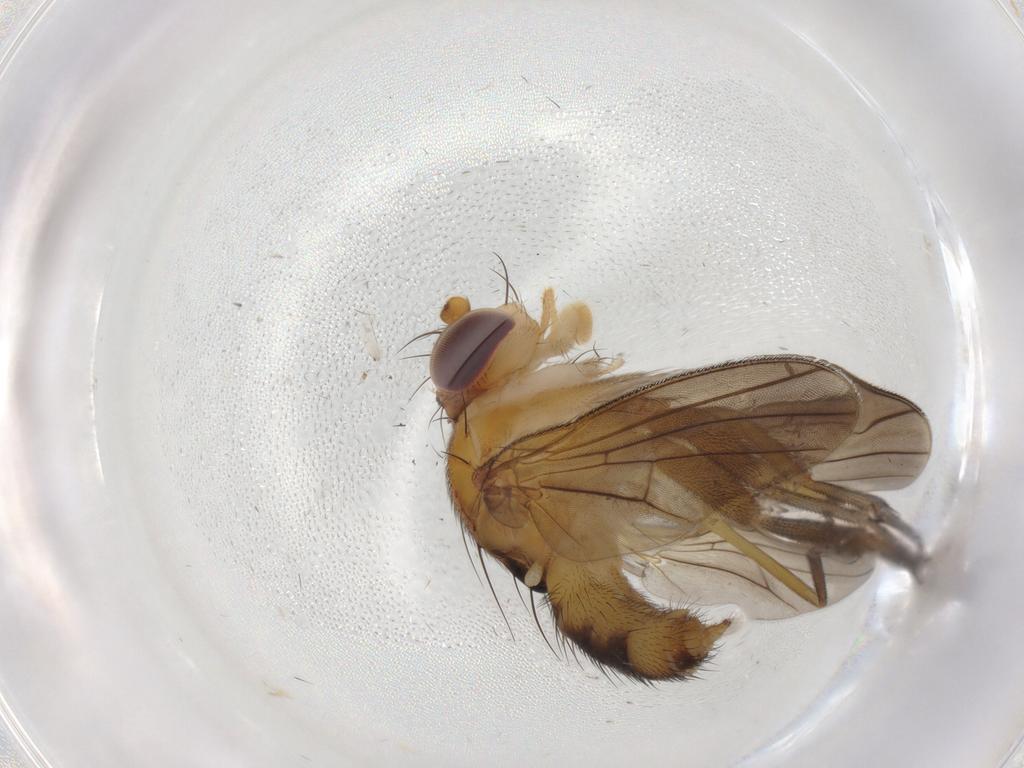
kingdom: Animalia
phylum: Arthropoda
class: Insecta
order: Diptera
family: Clusiidae
